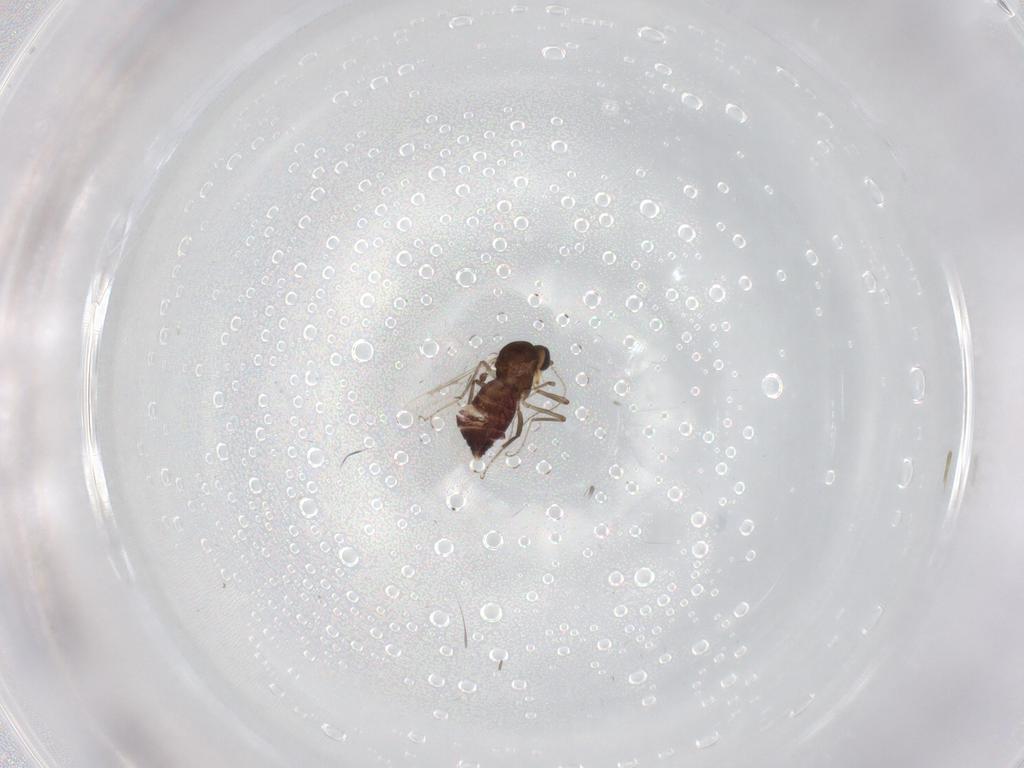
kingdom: Animalia
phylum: Arthropoda
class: Insecta
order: Diptera
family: Ceratopogonidae
